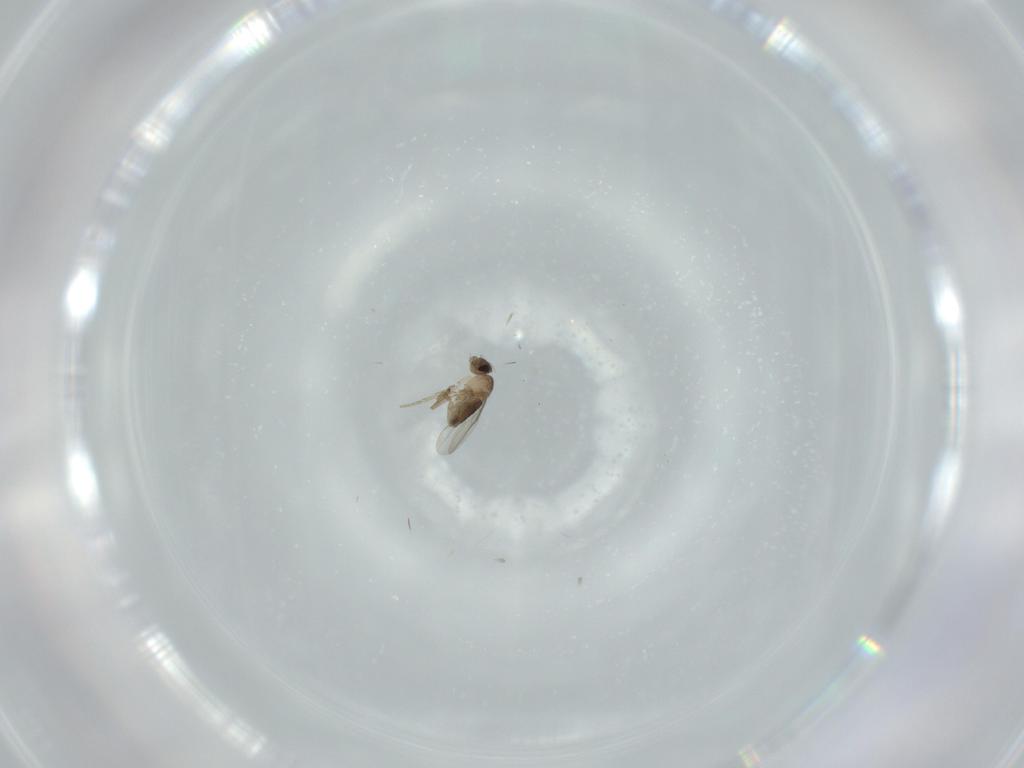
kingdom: Animalia
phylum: Arthropoda
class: Insecta
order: Diptera
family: Phoridae
